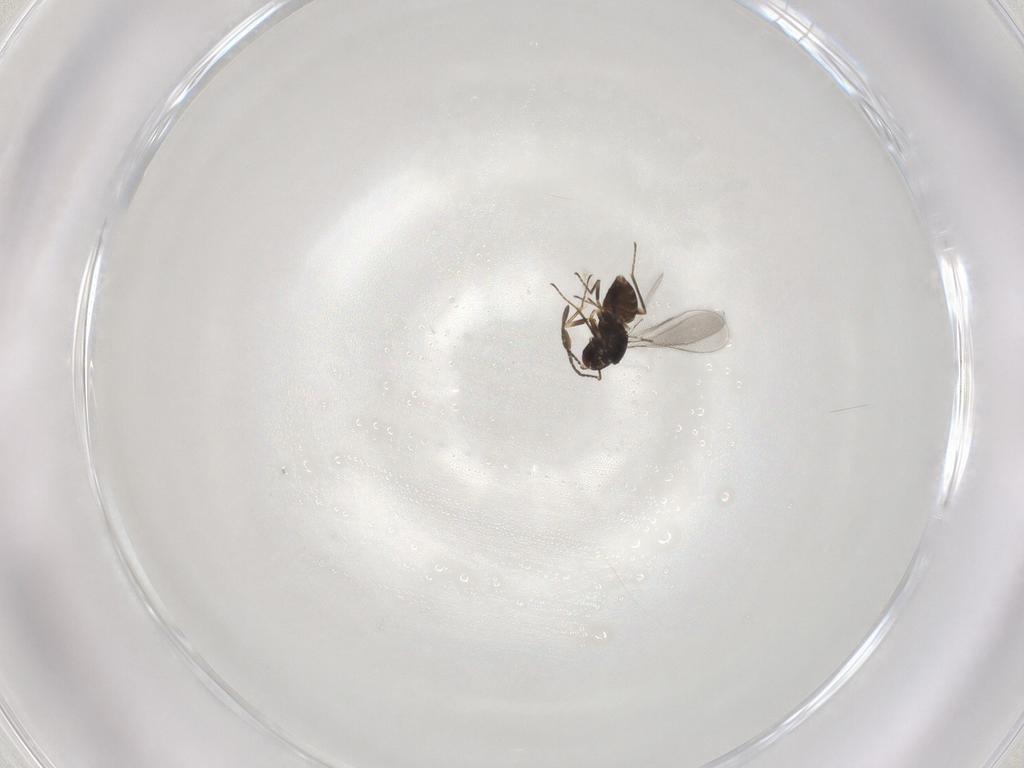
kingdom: Animalia
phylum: Arthropoda
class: Insecta
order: Hymenoptera
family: Mymaridae
